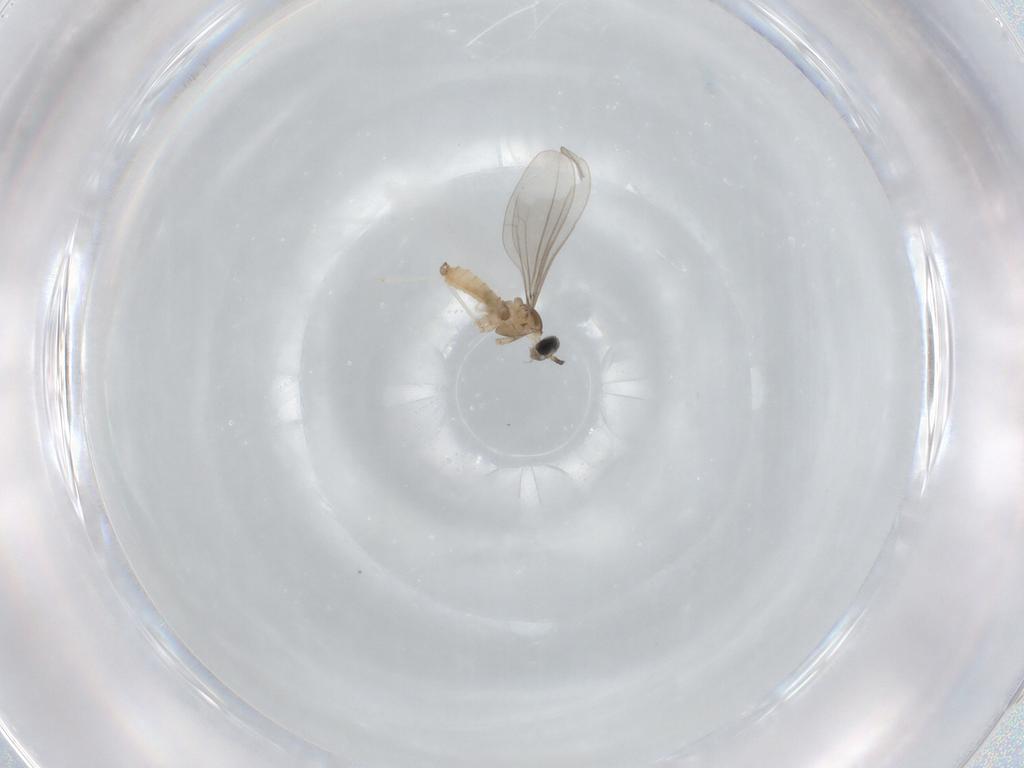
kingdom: Animalia
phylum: Arthropoda
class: Insecta
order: Diptera
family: Cecidomyiidae
